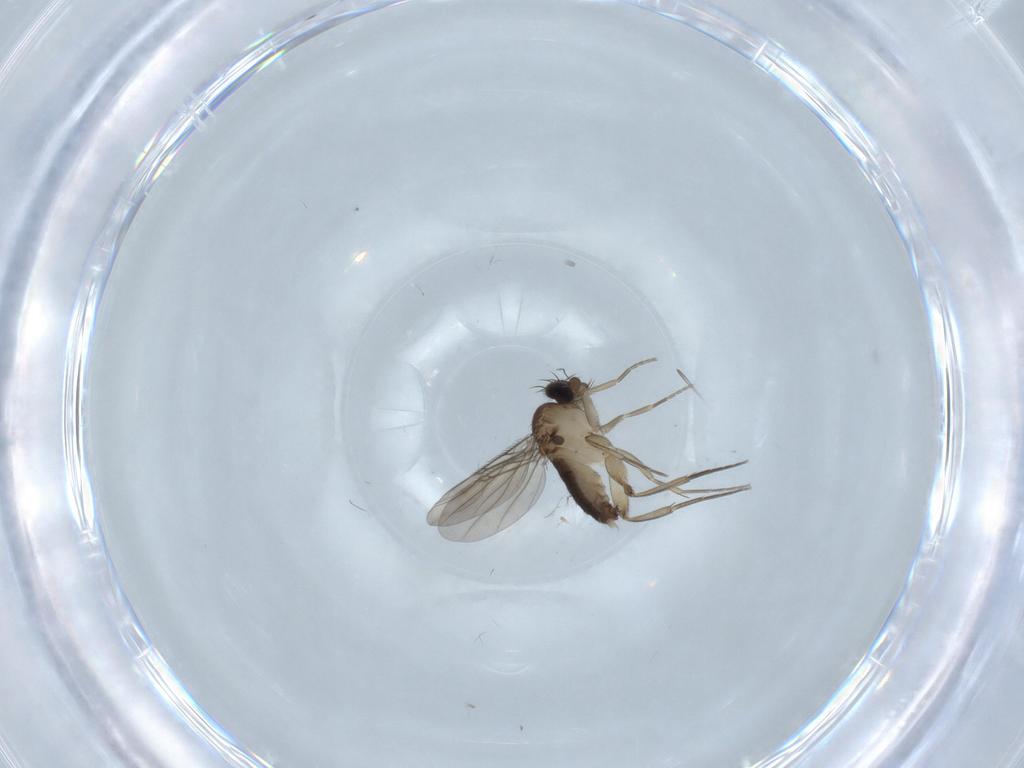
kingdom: Animalia
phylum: Arthropoda
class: Insecta
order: Diptera
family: Phoridae
